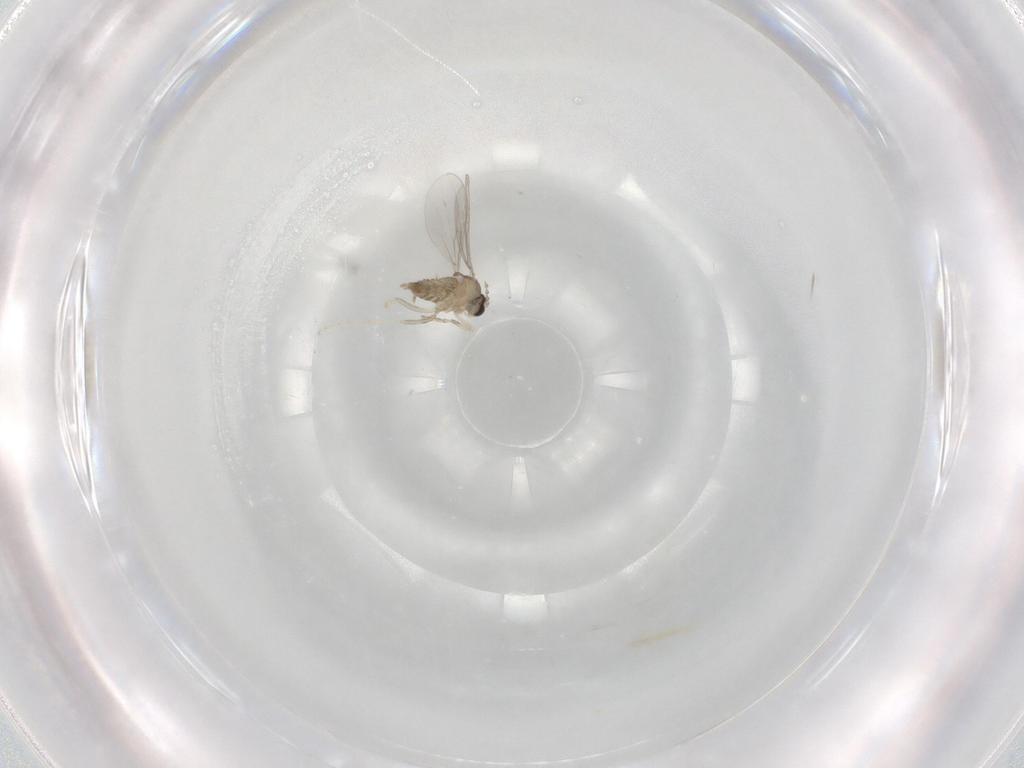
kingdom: Animalia
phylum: Arthropoda
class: Insecta
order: Diptera
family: Cecidomyiidae
